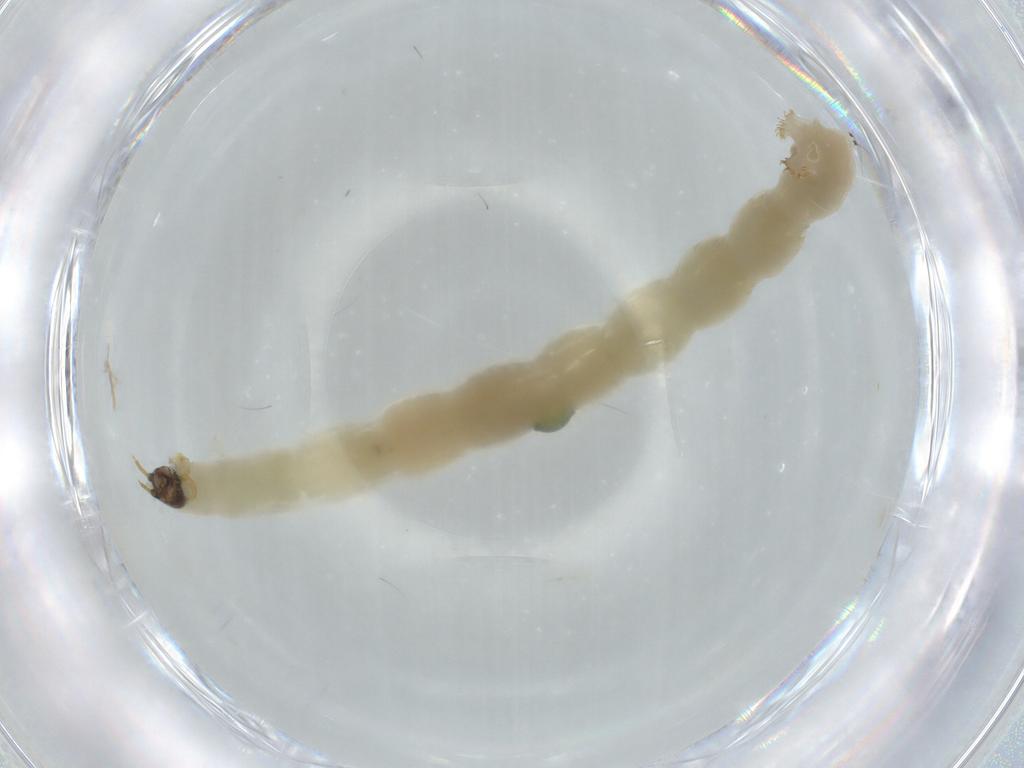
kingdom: Animalia
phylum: Arthropoda
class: Insecta
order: Diptera
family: Chironomidae
